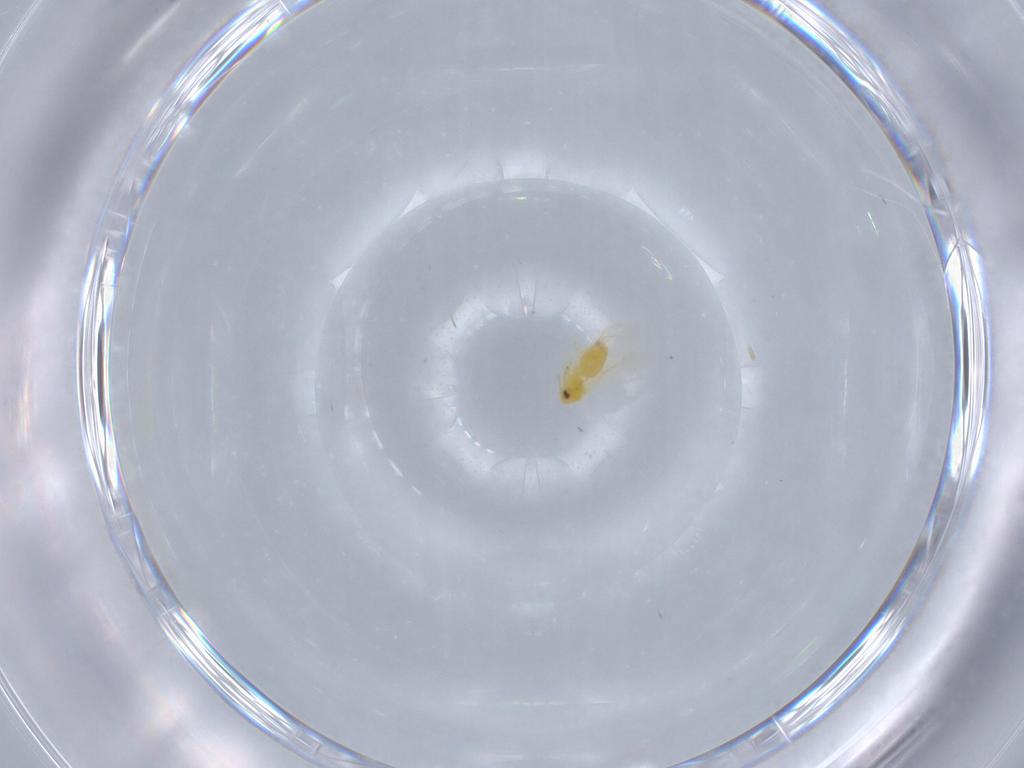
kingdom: Animalia
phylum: Arthropoda
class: Insecta
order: Hemiptera
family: Aleyrodidae
